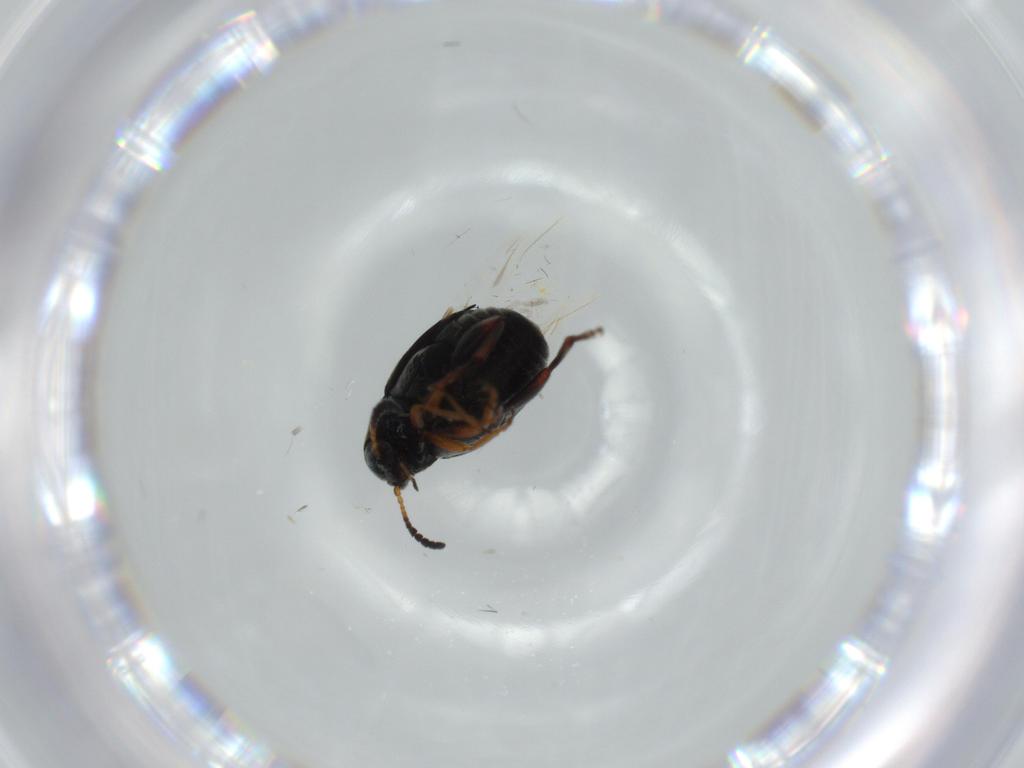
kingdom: Animalia
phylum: Arthropoda
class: Insecta
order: Coleoptera
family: Chrysomelidae
